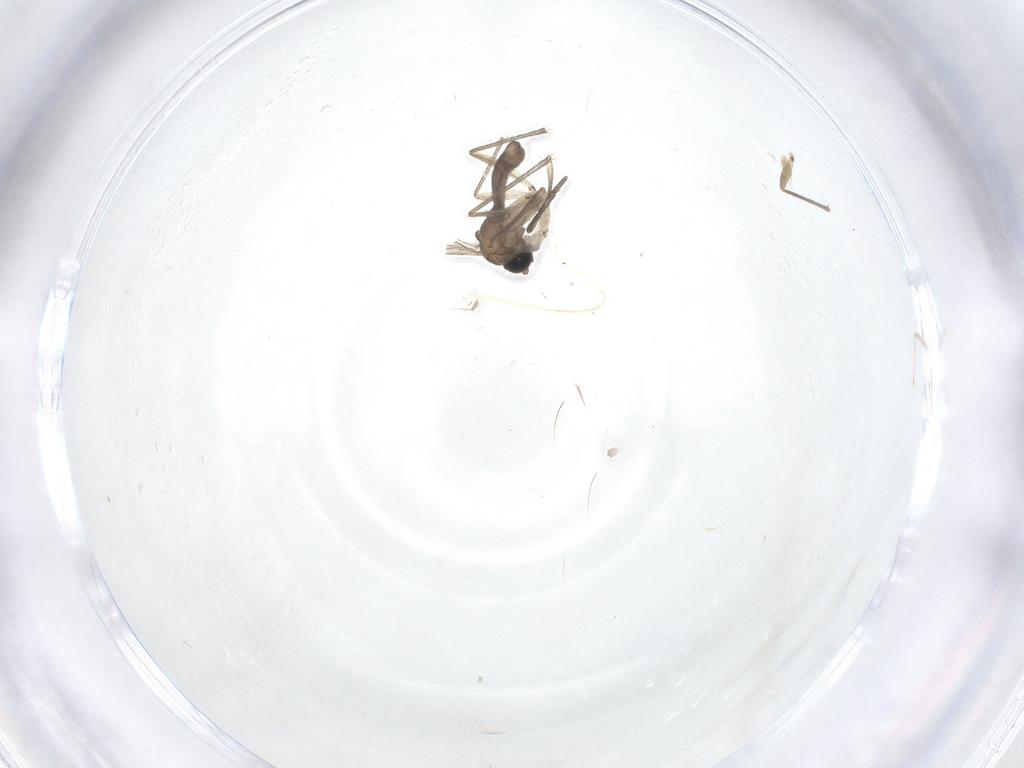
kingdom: Animalia
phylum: Arthropoda
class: Insecta
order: Diptera
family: Sciaridae
